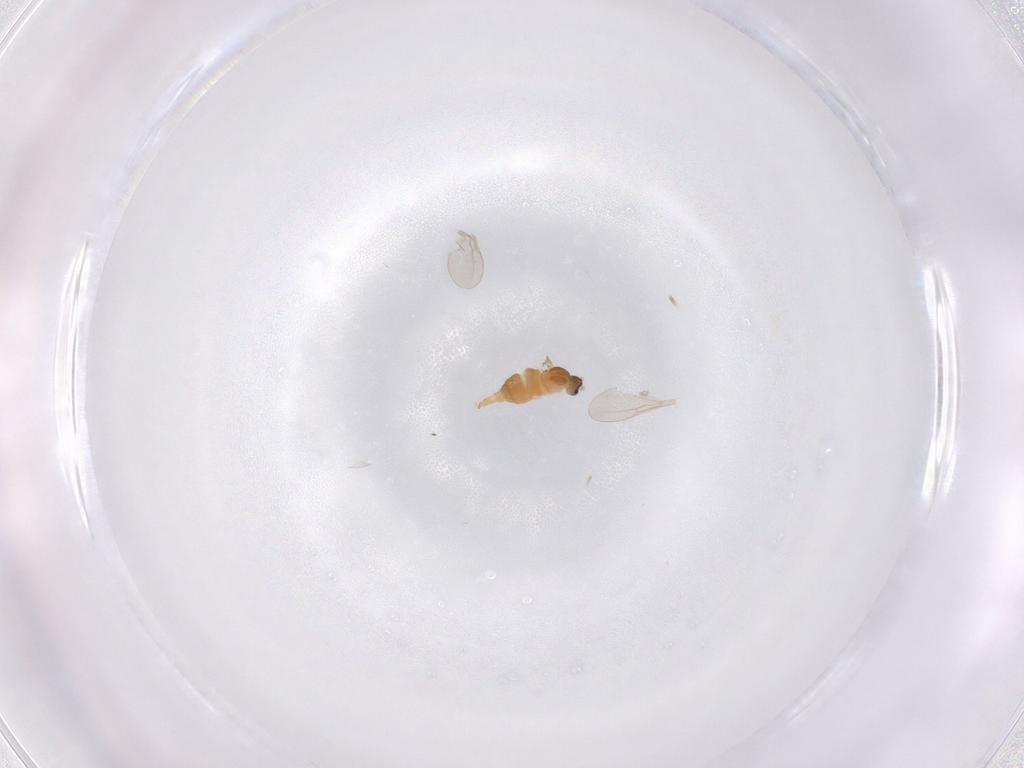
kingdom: Animalia
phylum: Arthropoda
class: Insecta
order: Diptera
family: Cecidomyiidae
